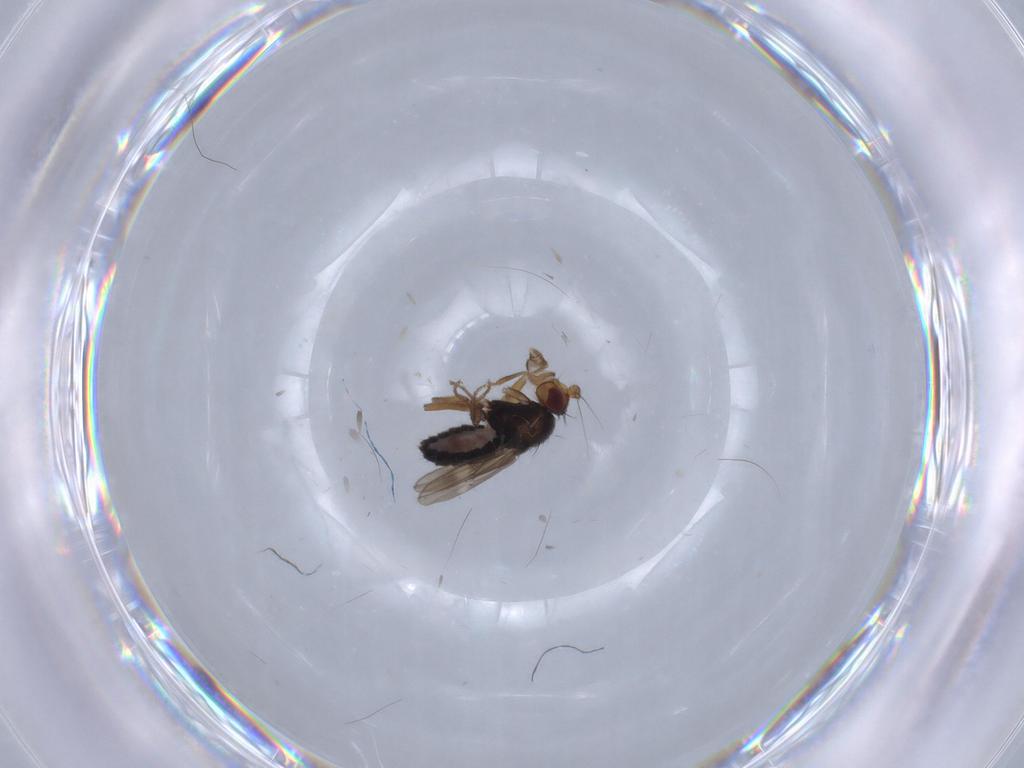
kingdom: Animalia
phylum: Arthropoda
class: Insecta
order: Diptera
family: Sphaeroceridae
